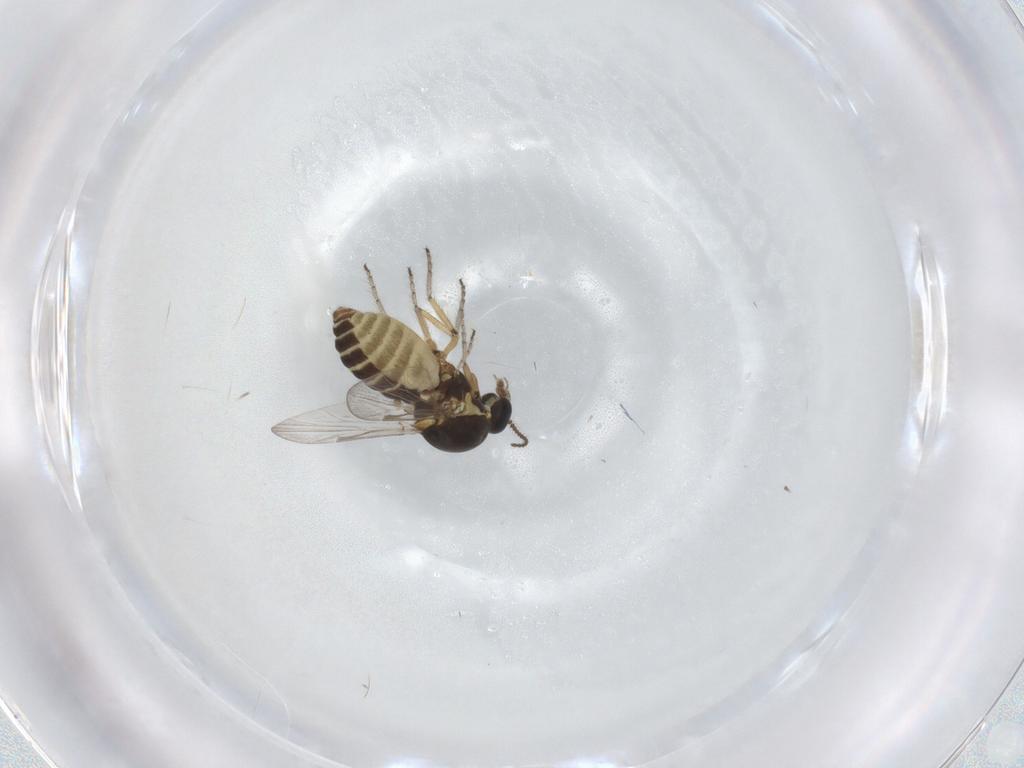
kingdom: Animalia
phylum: Arthropoda
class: Insecta
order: Diptera
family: Ceratopogonidae
